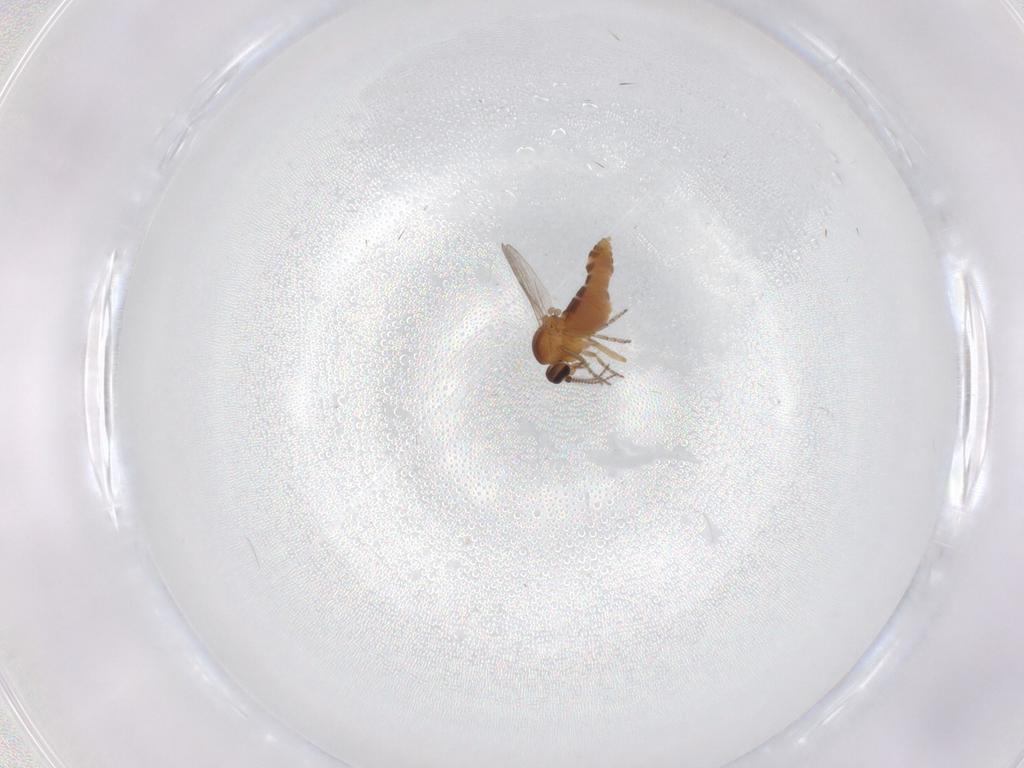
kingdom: Animalia
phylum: Arthropoda
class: Insecta
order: Diptera
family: Ceratopogonidae
